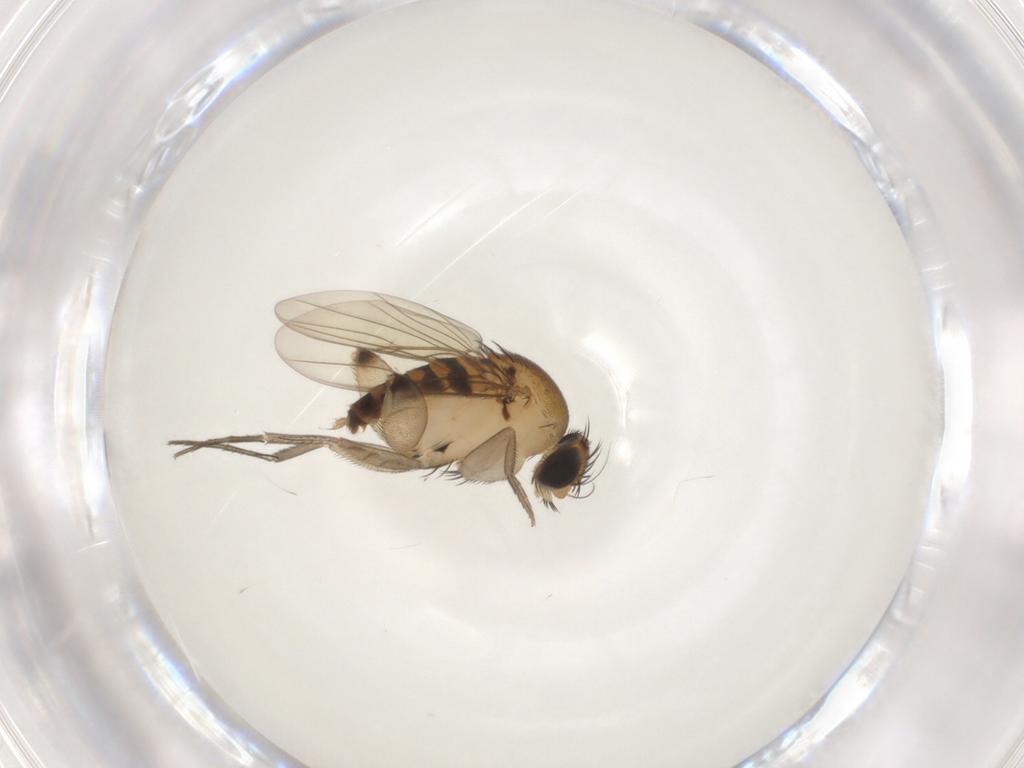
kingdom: Animalia
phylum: Arthropoda
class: Insecta
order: Diptera
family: Phoridae
